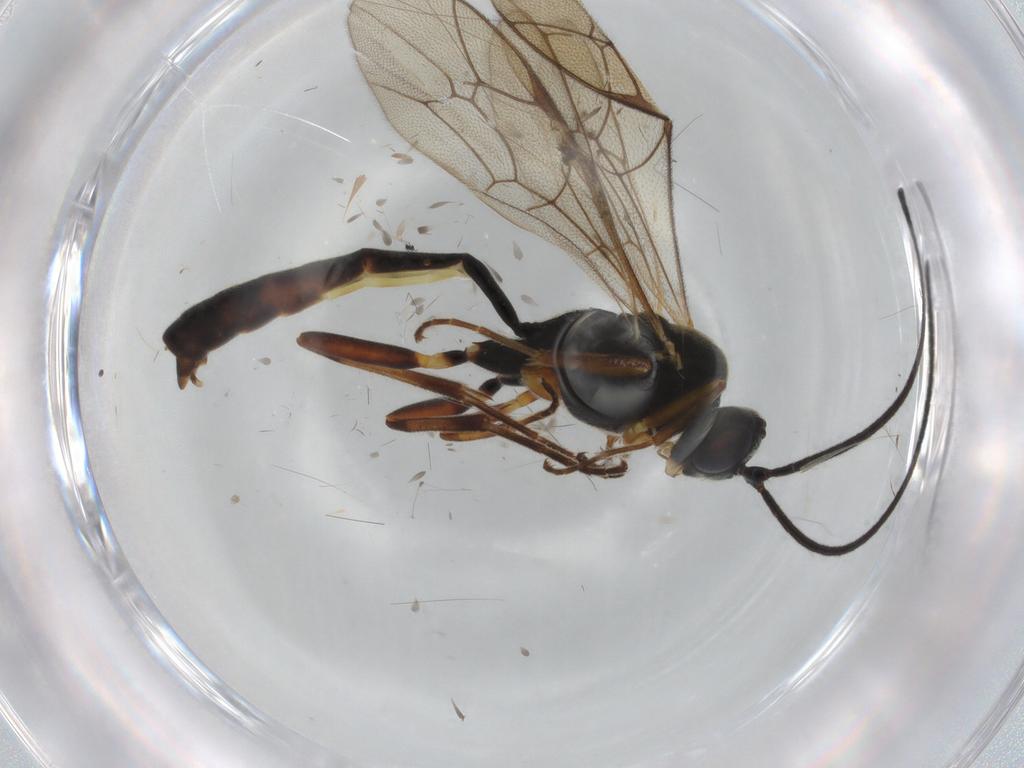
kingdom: Animalia
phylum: Arthropoda
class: Insecta
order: Hymenoptera
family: Ichneumonidae
